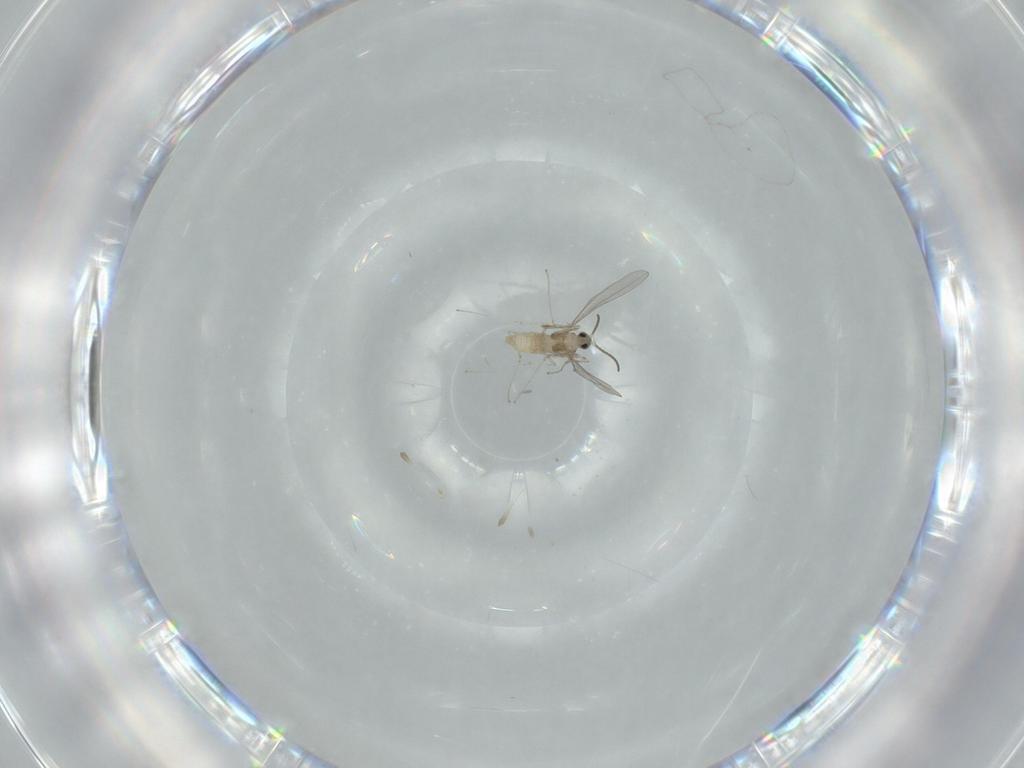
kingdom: Animalia
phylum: Arthropoda
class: Insecta
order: Diptera
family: Cecidomyiidae
